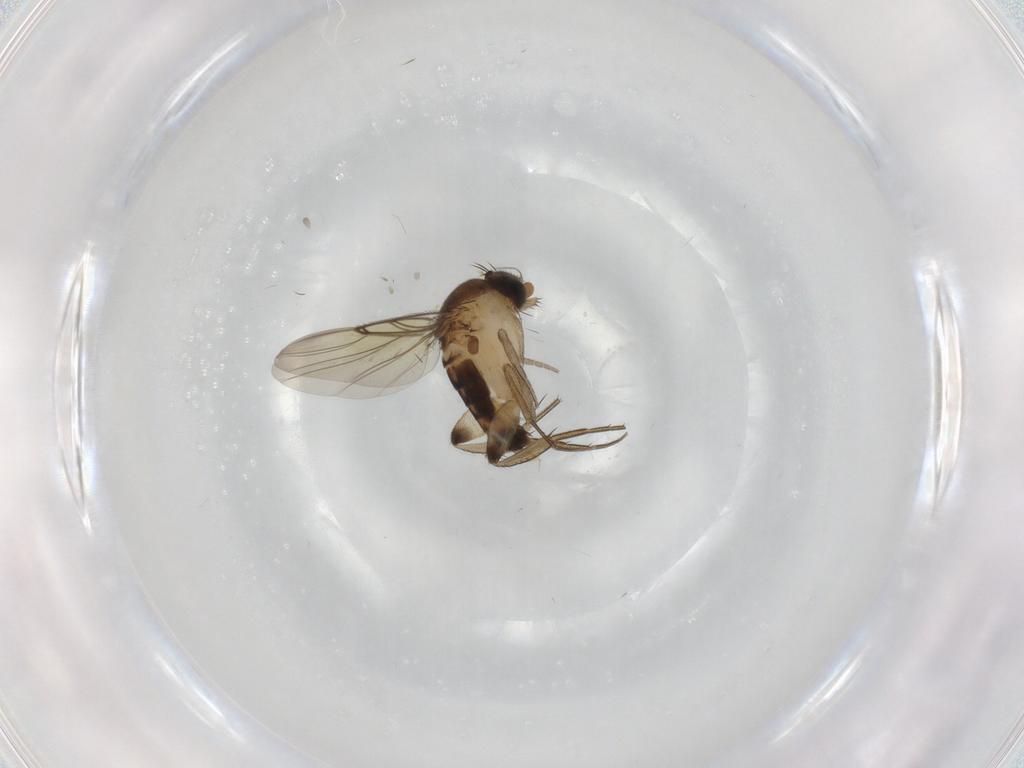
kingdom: Animalia
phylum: Arthropoda
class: Insecta
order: Diptera
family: Phoridae
